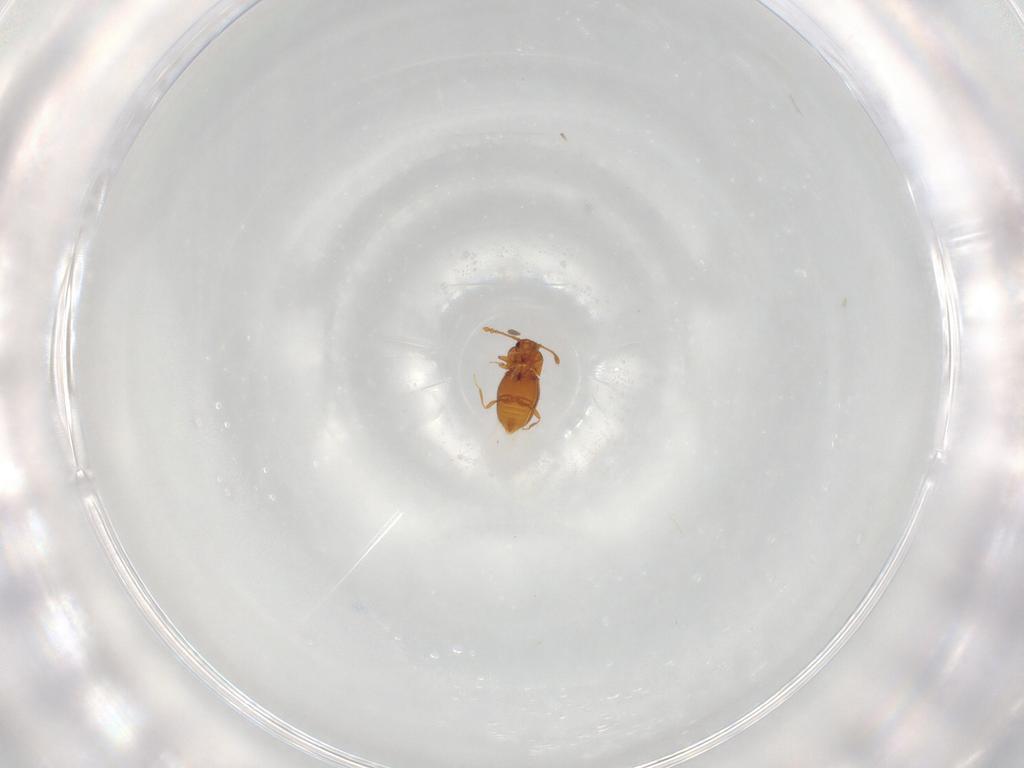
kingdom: Animalia
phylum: Arthropoda
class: Insecta
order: Coleoptera
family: Staphylinidae
